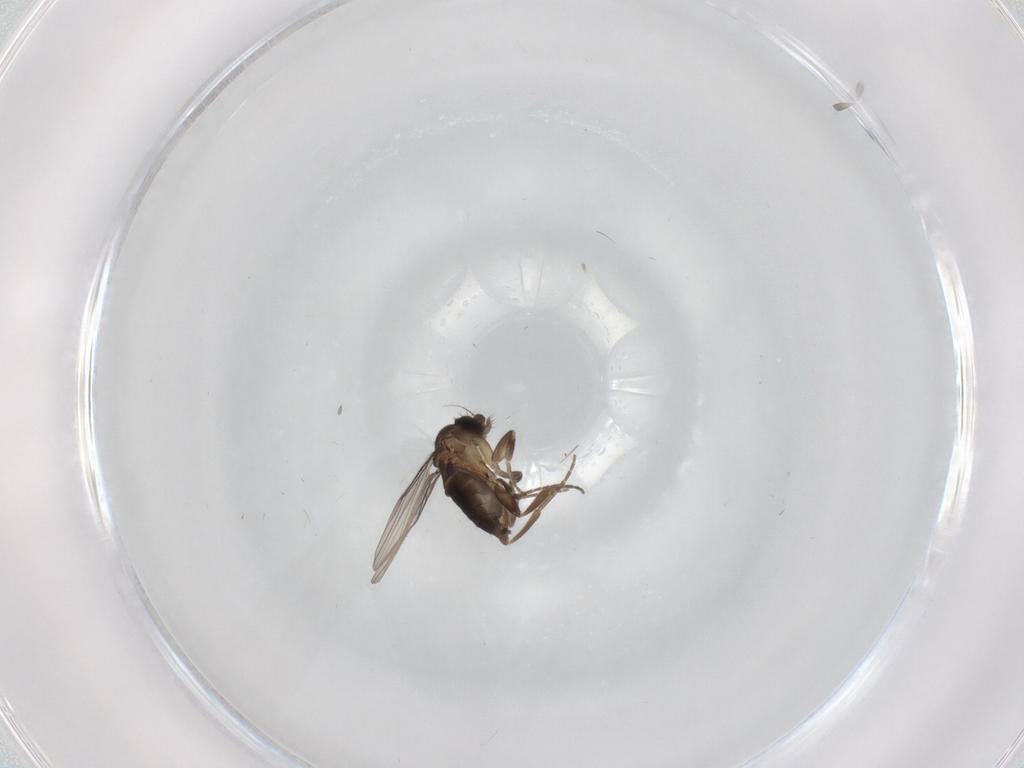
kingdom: Animalia
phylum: Arthropoda
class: Insecta
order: Diptera
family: Phoridae
